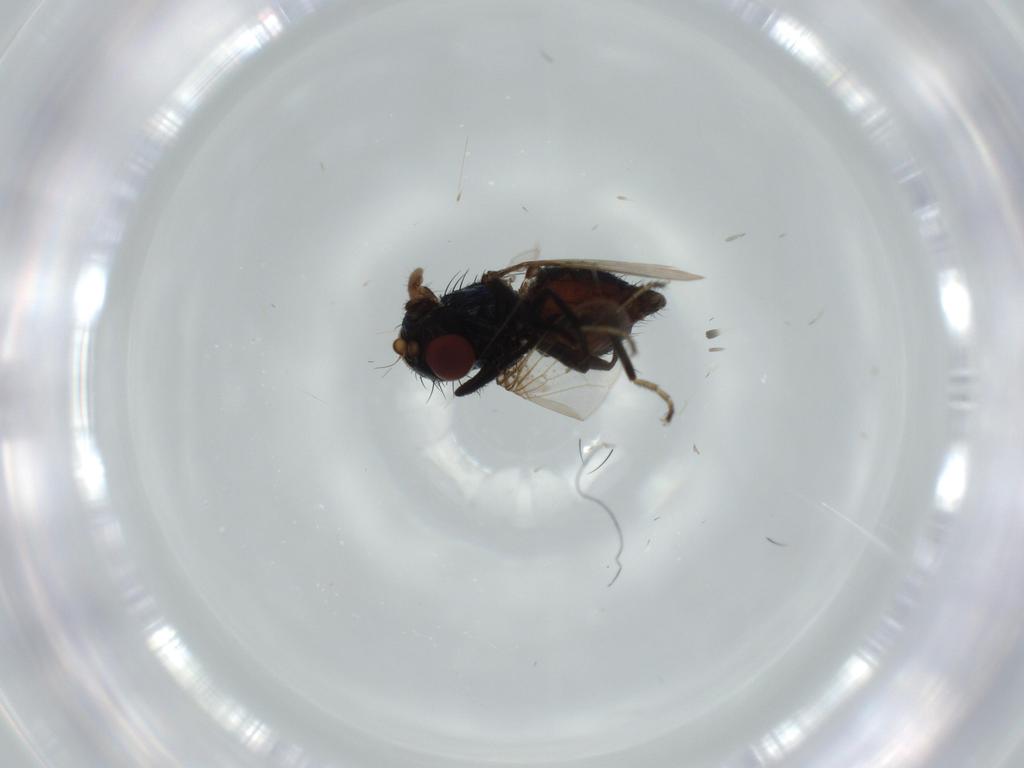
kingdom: Animalia
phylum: Arthropoda
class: Insecta
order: Diptera
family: Drosophilidae
